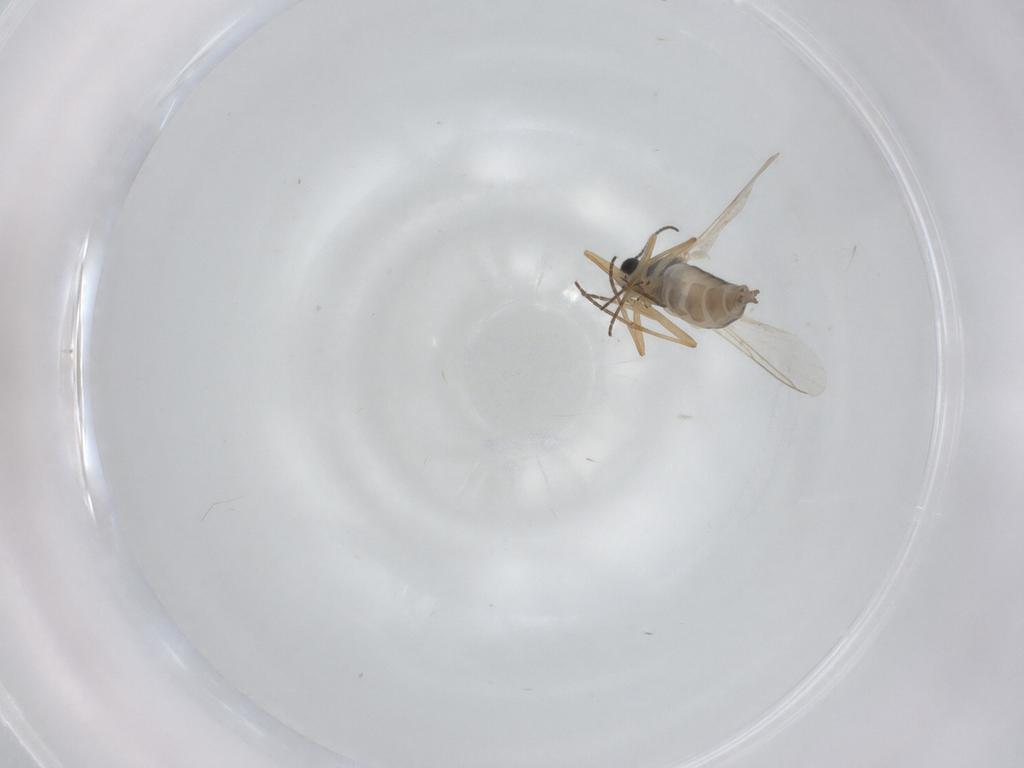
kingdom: Animalia
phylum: Arthropoda
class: Insecta
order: Diptera
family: Sciaridae
